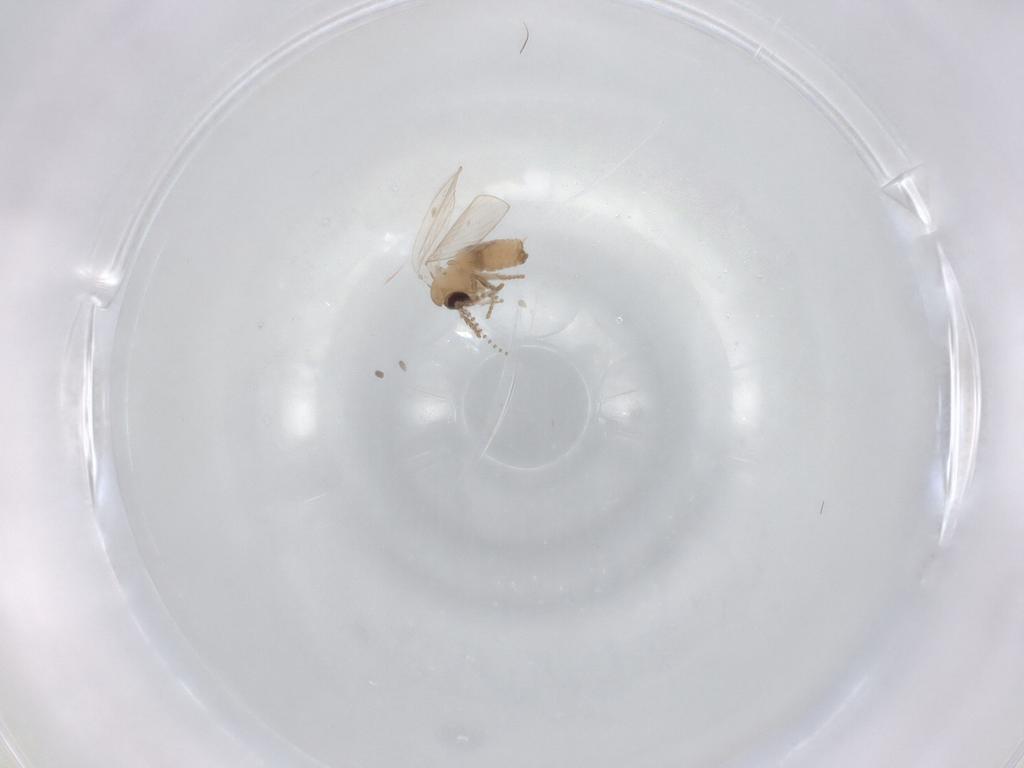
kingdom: Animalia
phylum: Arthropoda
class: Insecta
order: Diptera
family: Psychodidae
